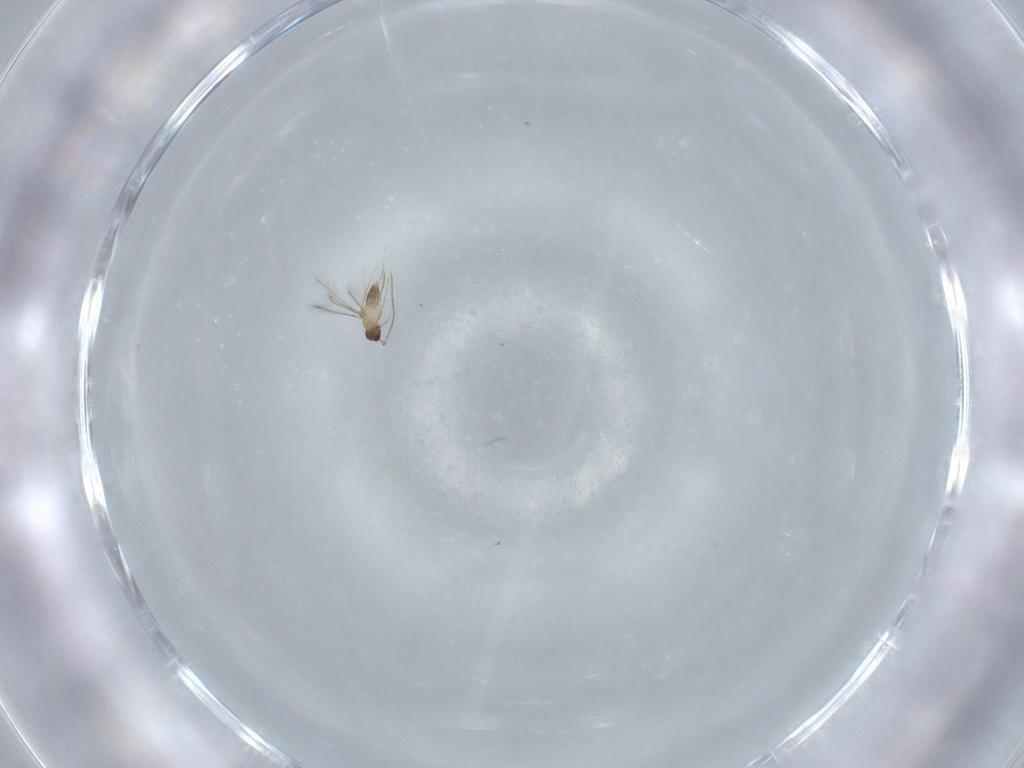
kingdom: Animalia
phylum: Arthropoda
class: Insecta
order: Hymenoptera
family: Mymaridae
